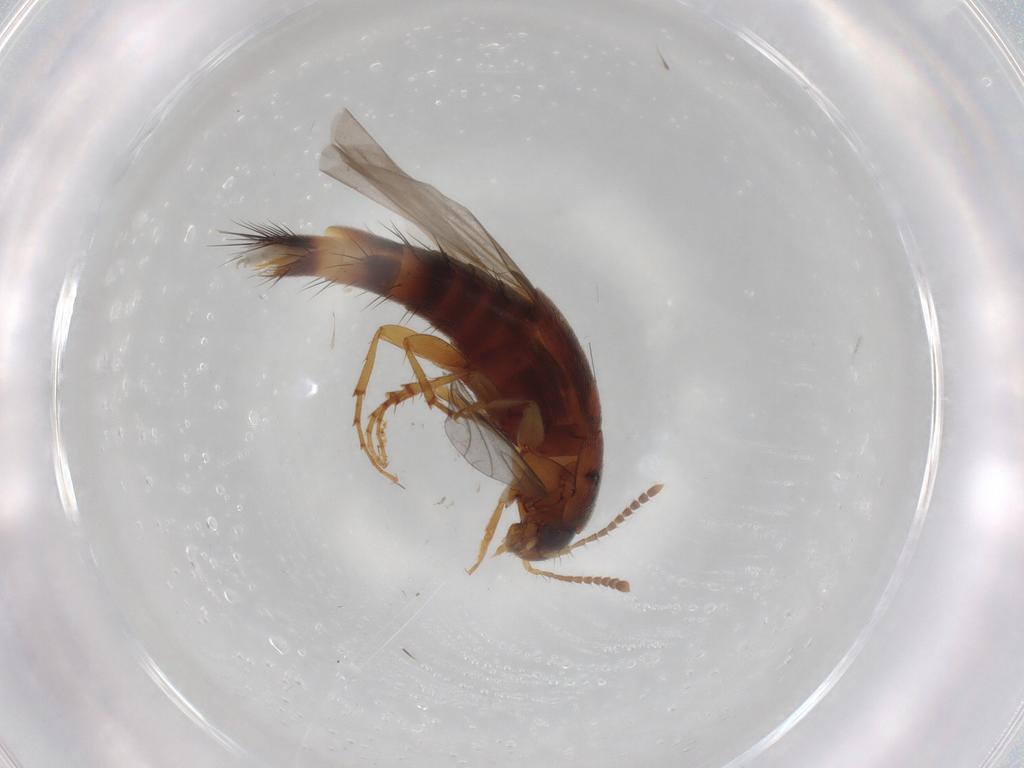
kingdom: Animalia
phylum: Arthropoda
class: Insecta
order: Coleoptera
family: Staphylinidae
